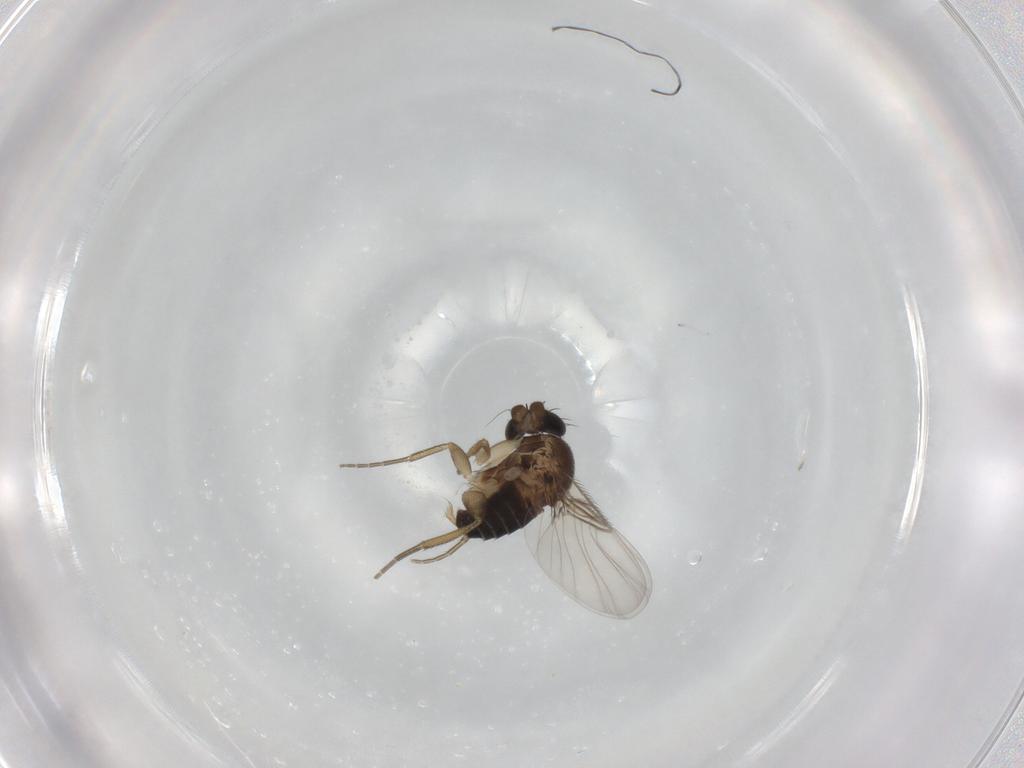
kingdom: Animalia
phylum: Arthropoda
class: Insecta
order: Diptera
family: Phoridae
